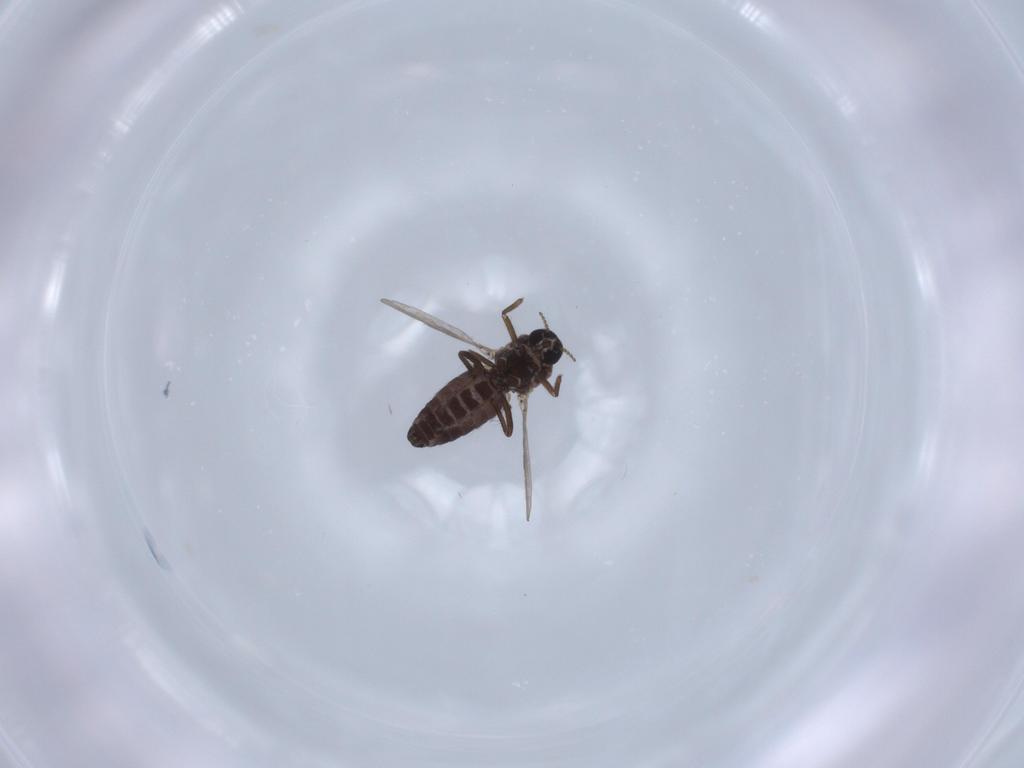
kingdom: Animalia
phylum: Arthropoda
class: Insecta
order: Diptera
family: Ceratopogonidae
